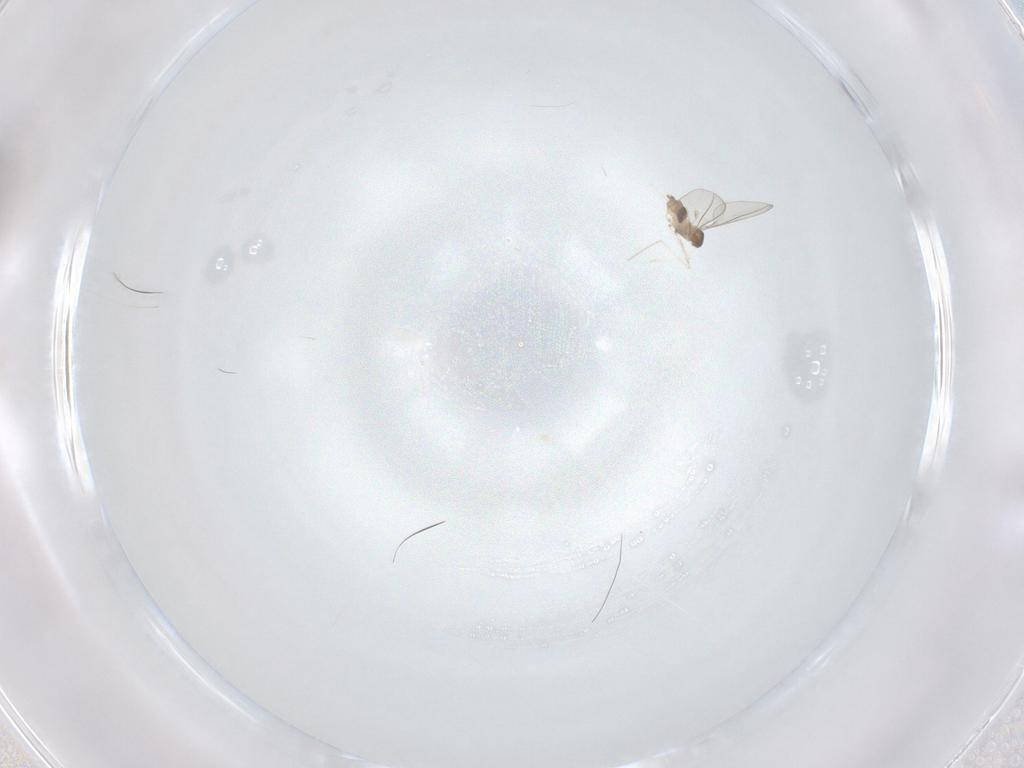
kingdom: Animalia
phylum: Arthropoda
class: Insecta
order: Diptera
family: Cecidomyiidae
